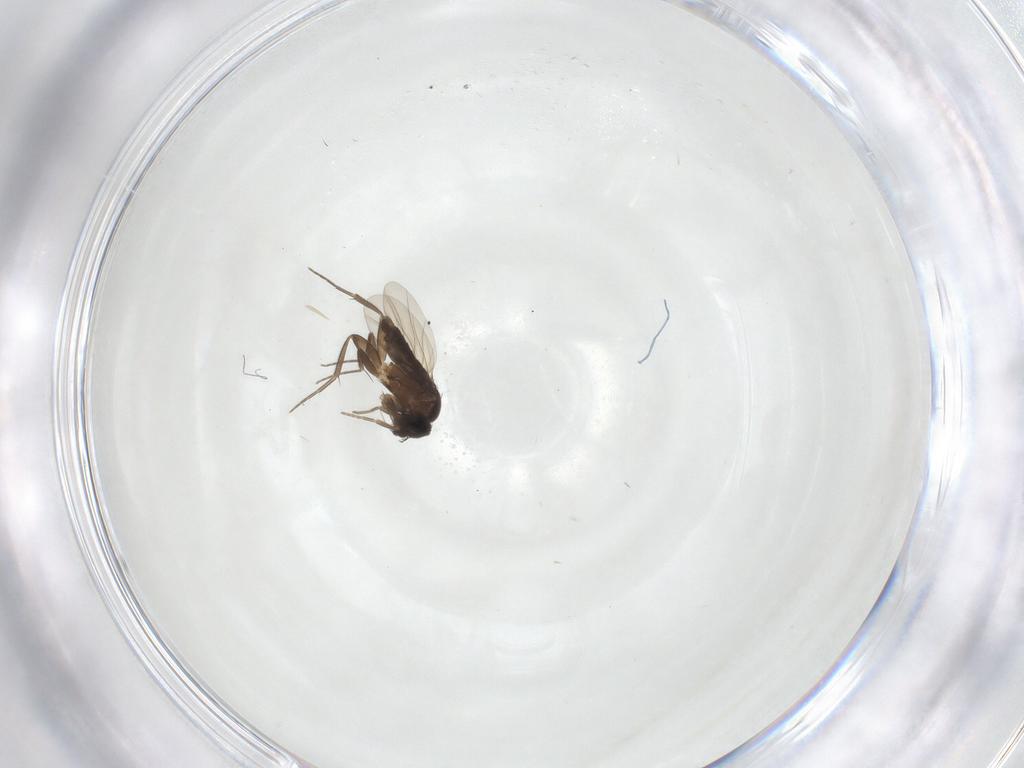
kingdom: Animalia
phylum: Arthropoda
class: Insecta
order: Diptera
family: Phoridae
